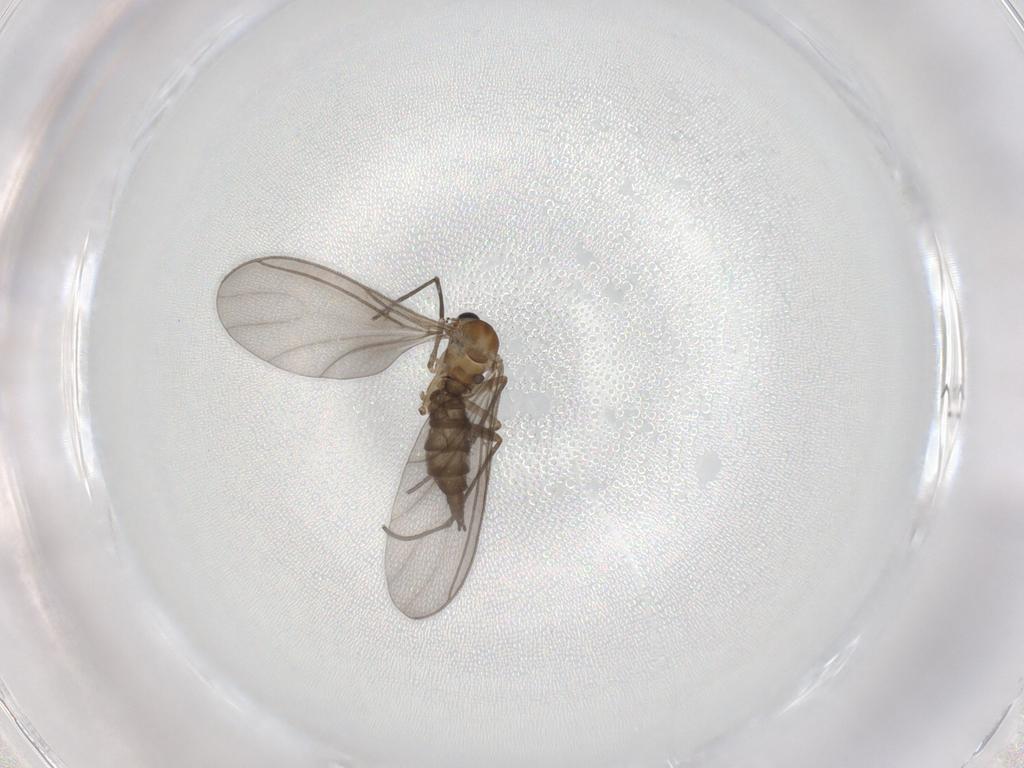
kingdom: Animalia
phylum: Arthropoda
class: Insecta
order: Diptera
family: Sciaridae
